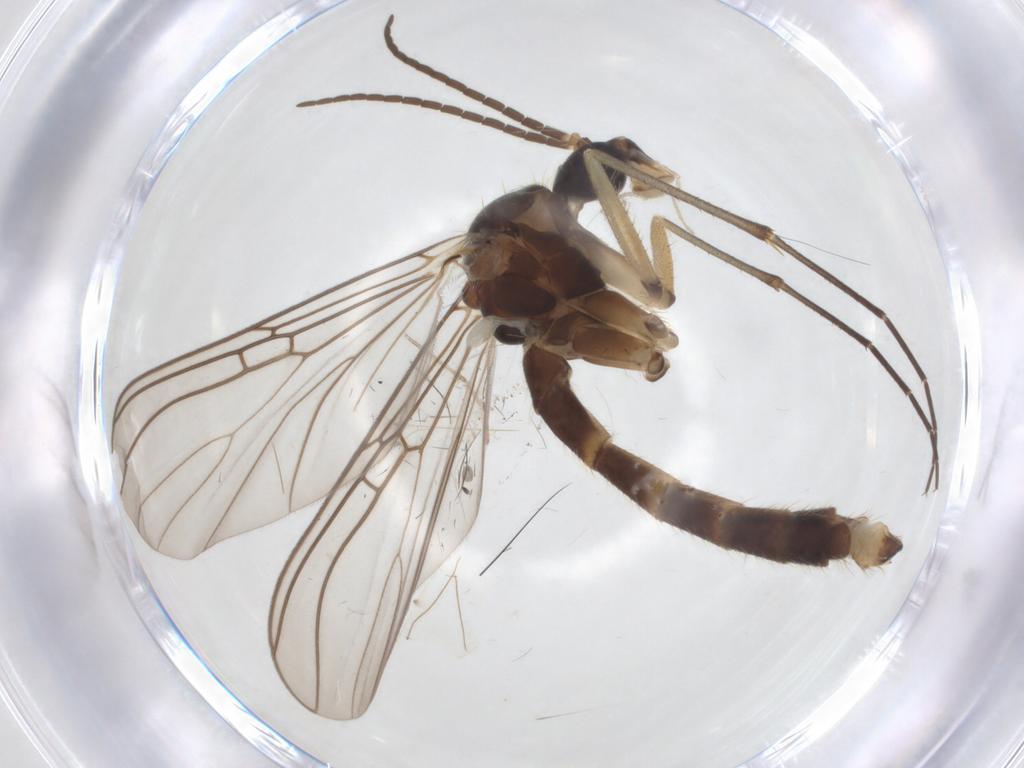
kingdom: Animalia
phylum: Arthropoda
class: Insecta
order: Diptera
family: Mycetophilidae
